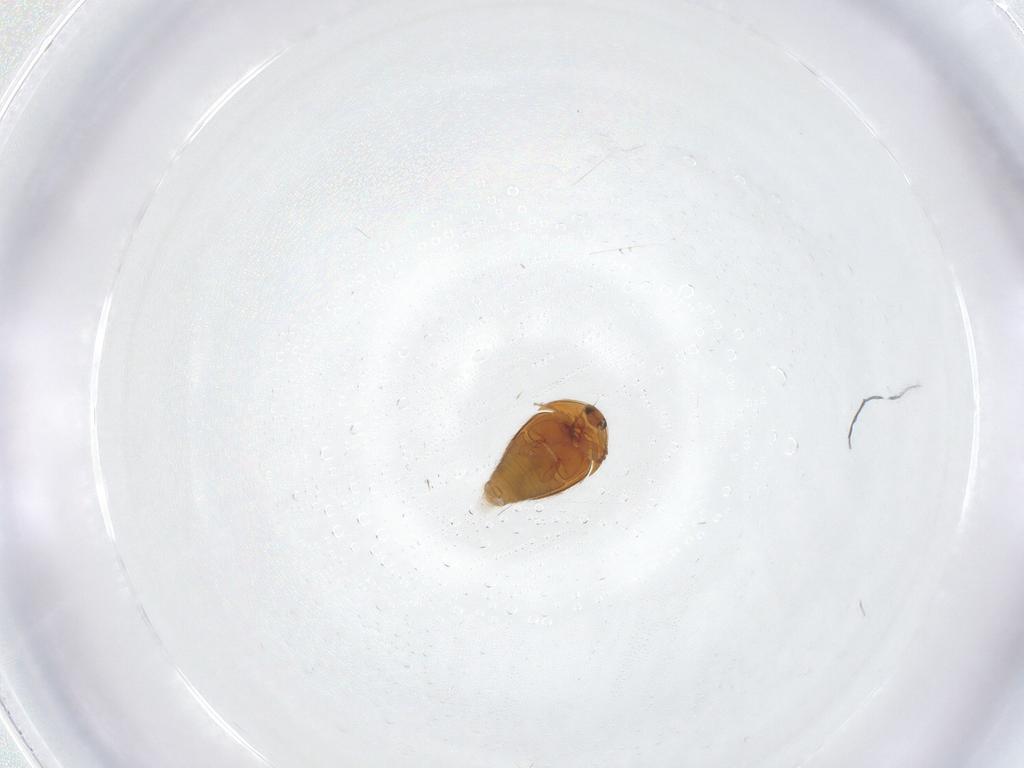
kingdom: Animalia
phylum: Arthropoda
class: Insecta
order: Coleoptera
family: Corylophidae
